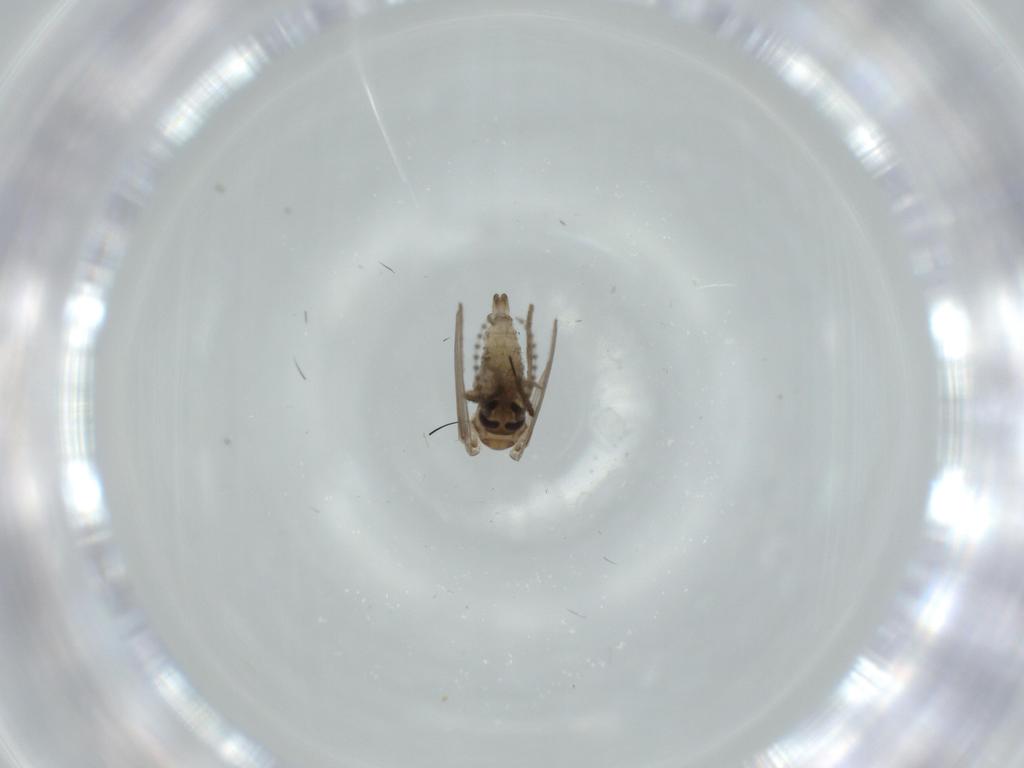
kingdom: Animalia
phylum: Arthropoda
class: Insecta
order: Diptera
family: Psychodidae
